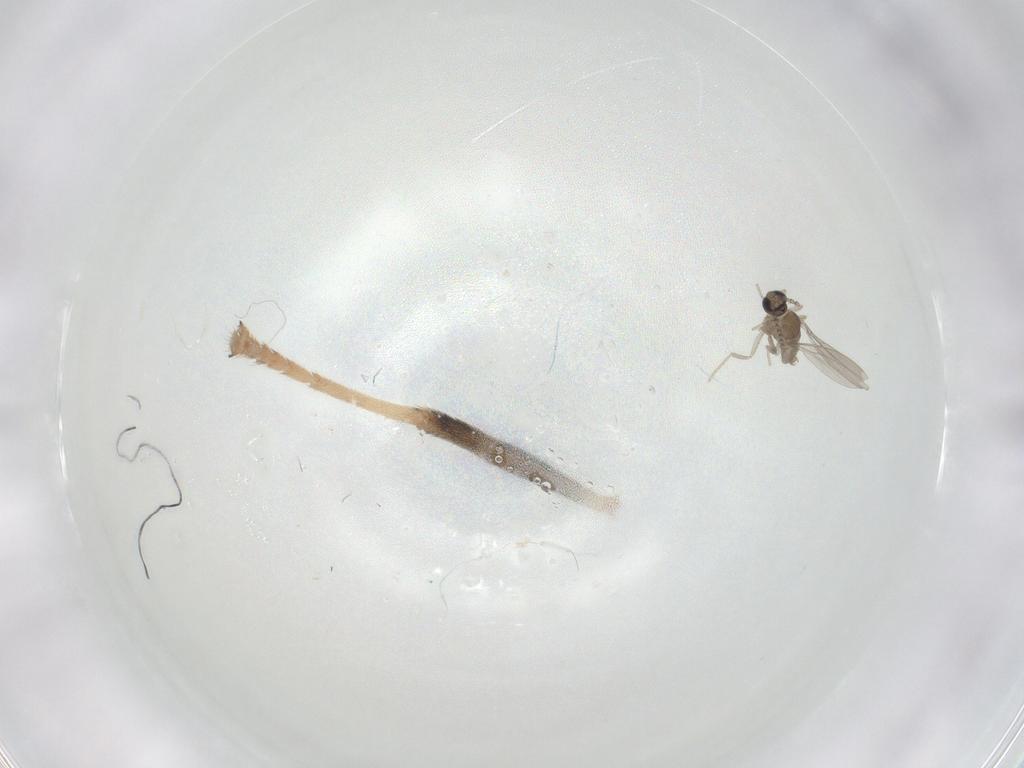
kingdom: Animalia
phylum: Arthropoda
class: Insecta
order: Diptera
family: Cecidomyiidae
